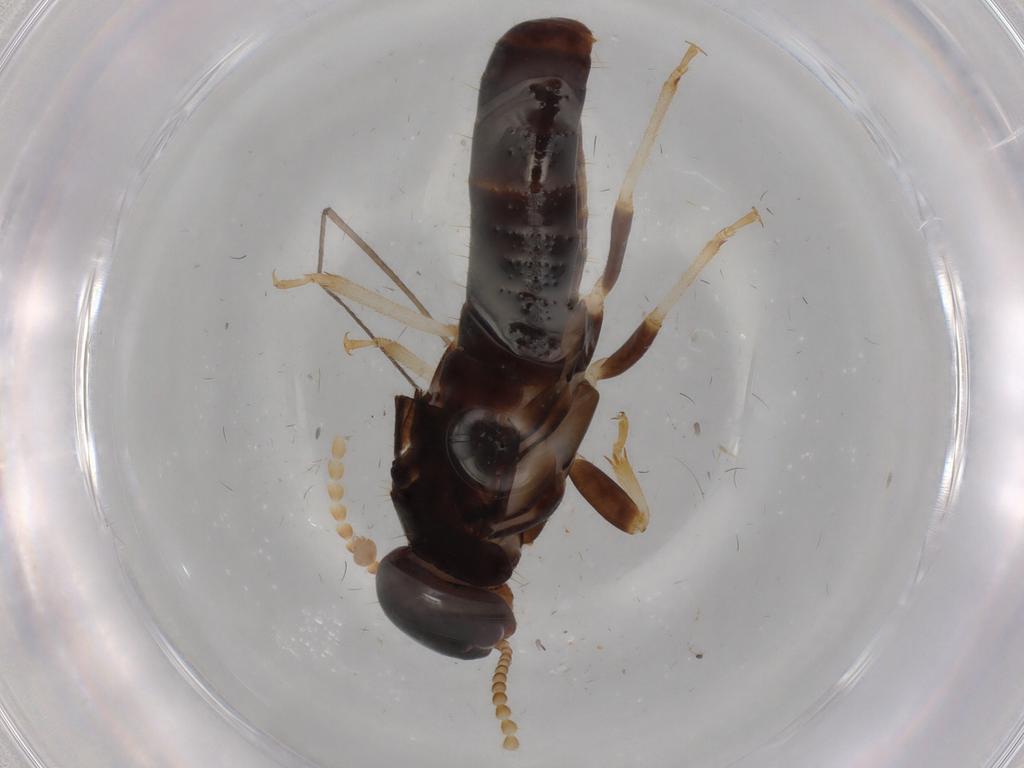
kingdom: Animalia
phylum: Arthropoda
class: Insecta
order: Blattodea
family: Kalotermitidae
